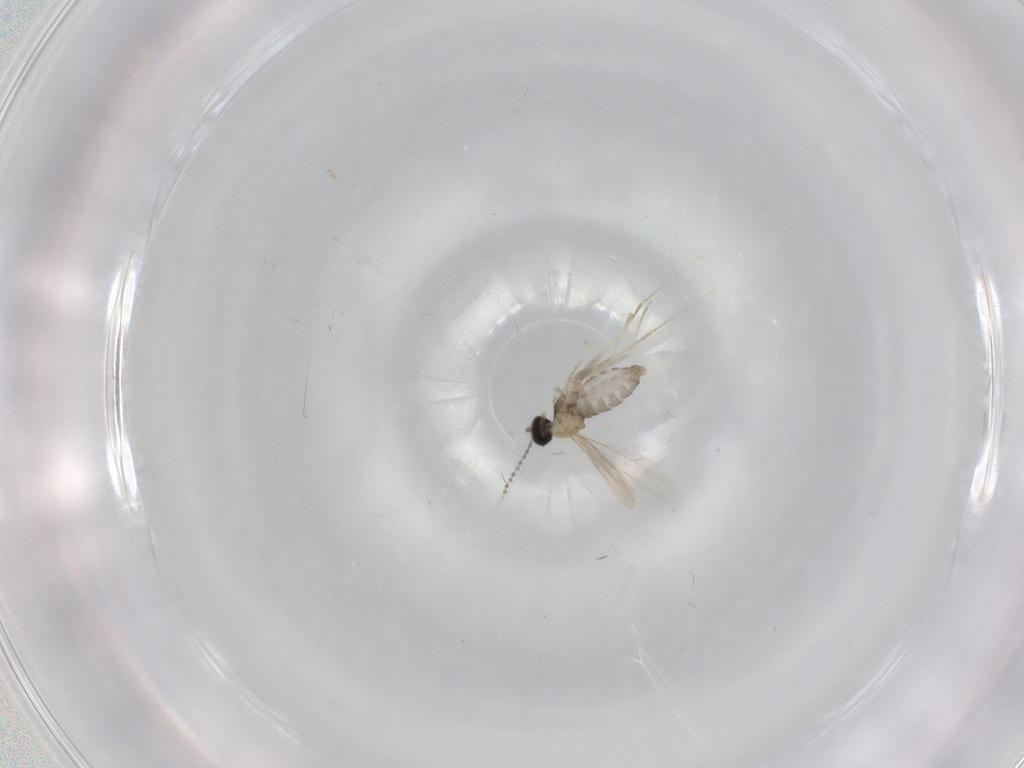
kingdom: Animalia
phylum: Arthropoda
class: Insecta
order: Diptera
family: Cecidomyiidae
